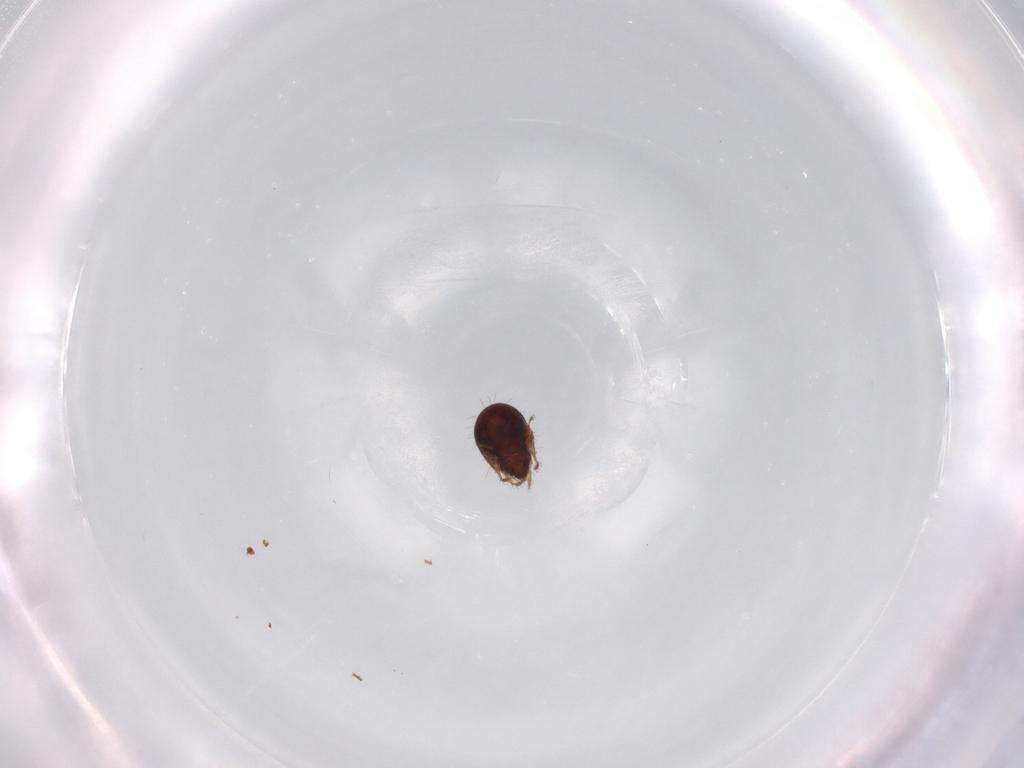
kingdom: Animalia
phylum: Arthropoda
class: Arachnida
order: Sarcoptiformes
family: Humerobatidae
